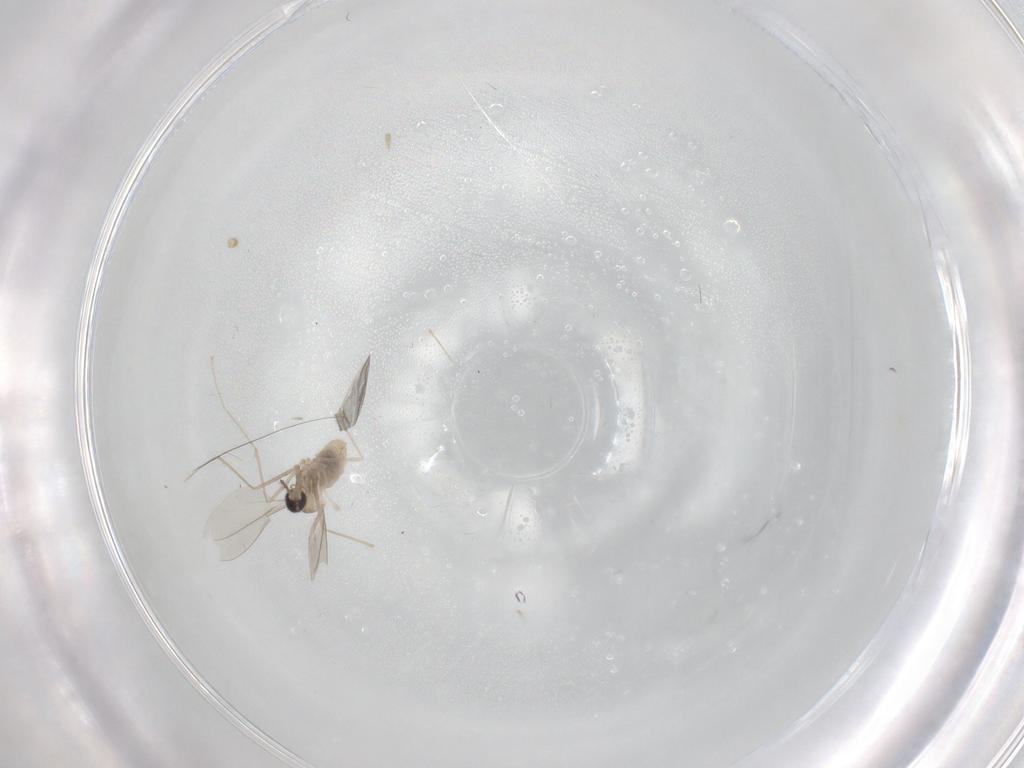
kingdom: Animalia
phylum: Arthropoda
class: Insecta
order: Diptera
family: Sciaridae
